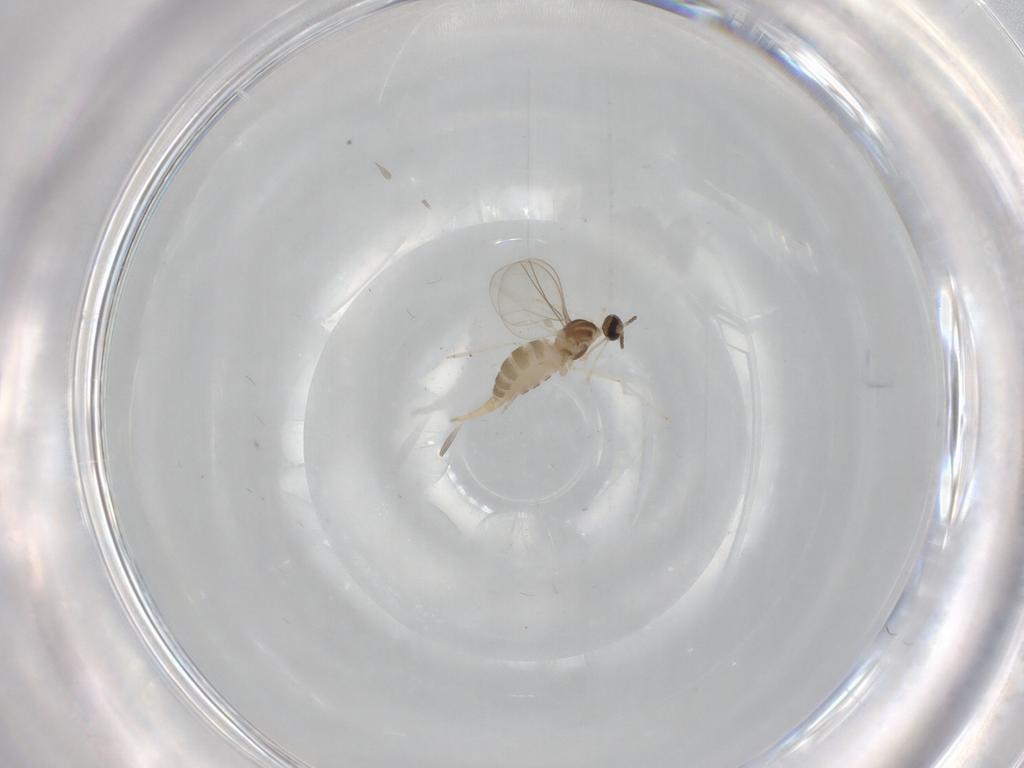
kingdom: Animalia
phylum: Arthropoda
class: Insecta
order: Diptera
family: Cecidomyiidae
